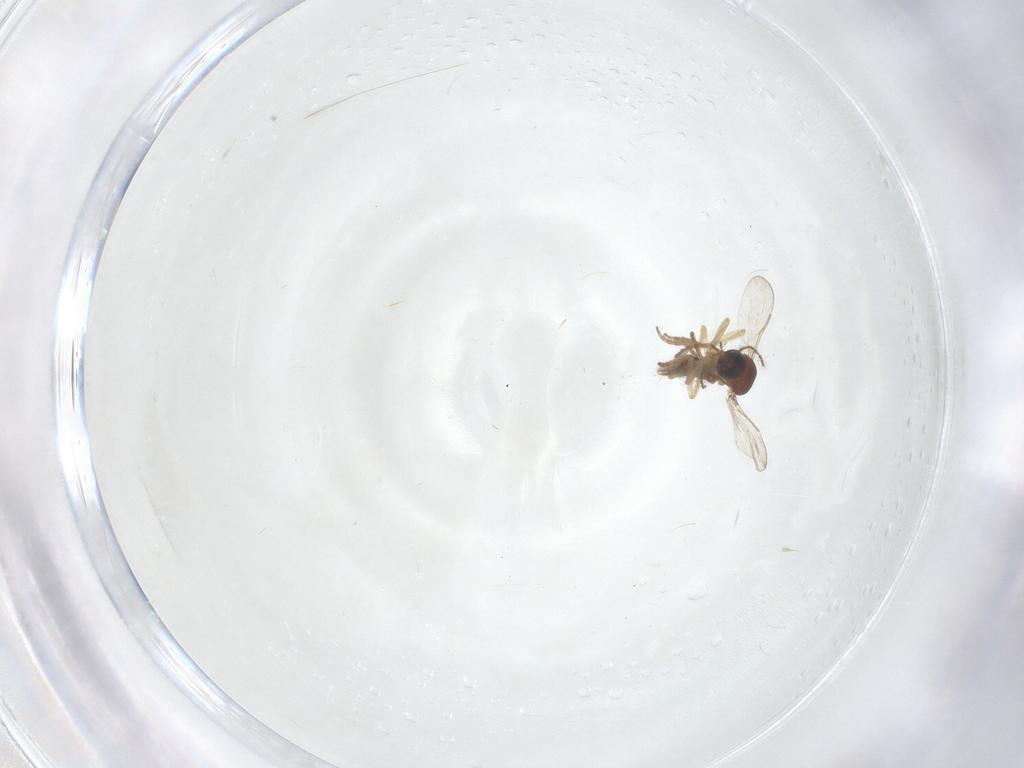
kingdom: Animalia
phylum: Arthropoda
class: Insecta
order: Diptera
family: Ceratopogonidae
